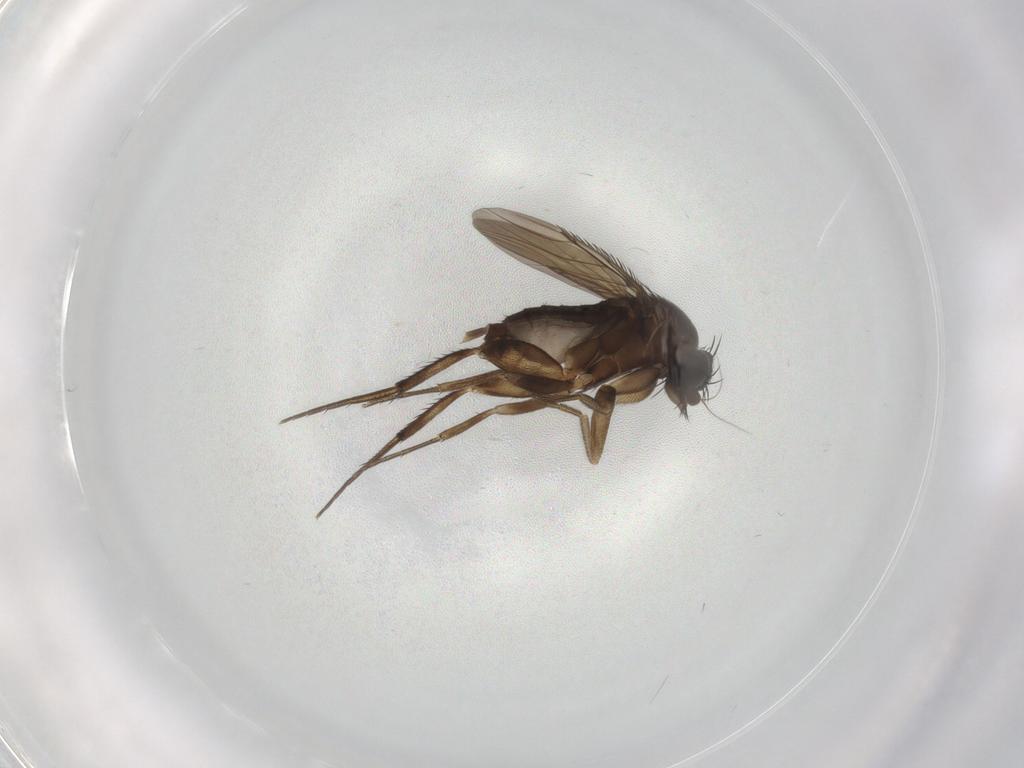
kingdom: Animalia
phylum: Arthropoda
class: Insecta
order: Diptera
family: Phoridae
